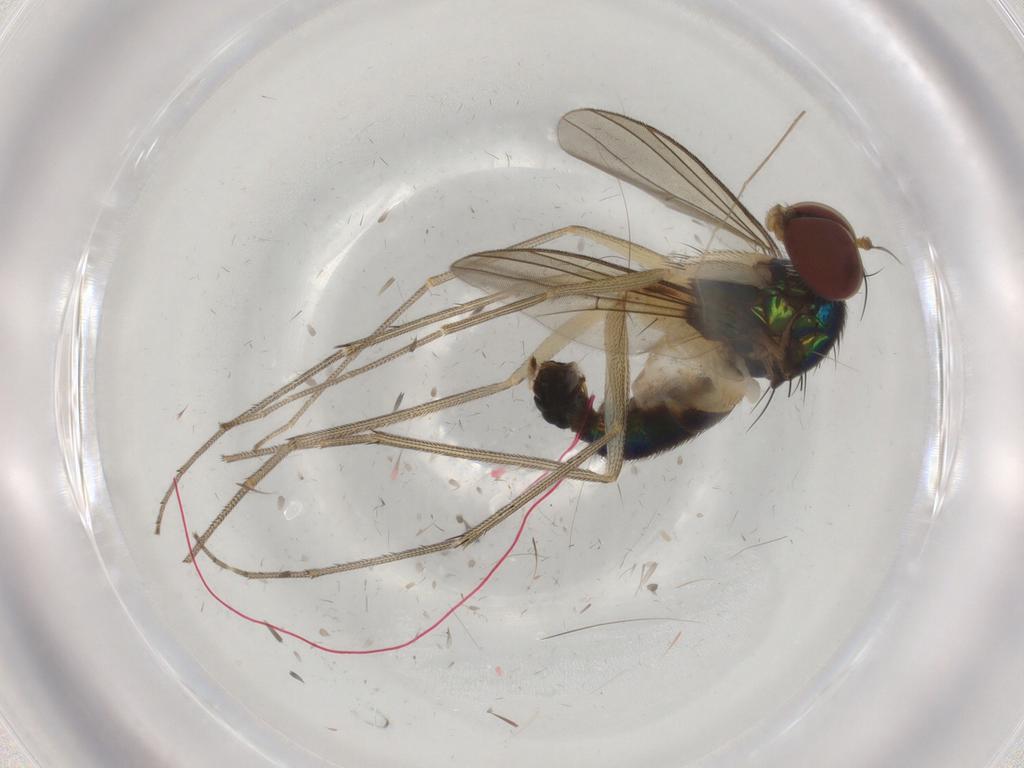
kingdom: Animalia
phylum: Arthropoda
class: Insecta
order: Diptera
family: Dolichopodidae
